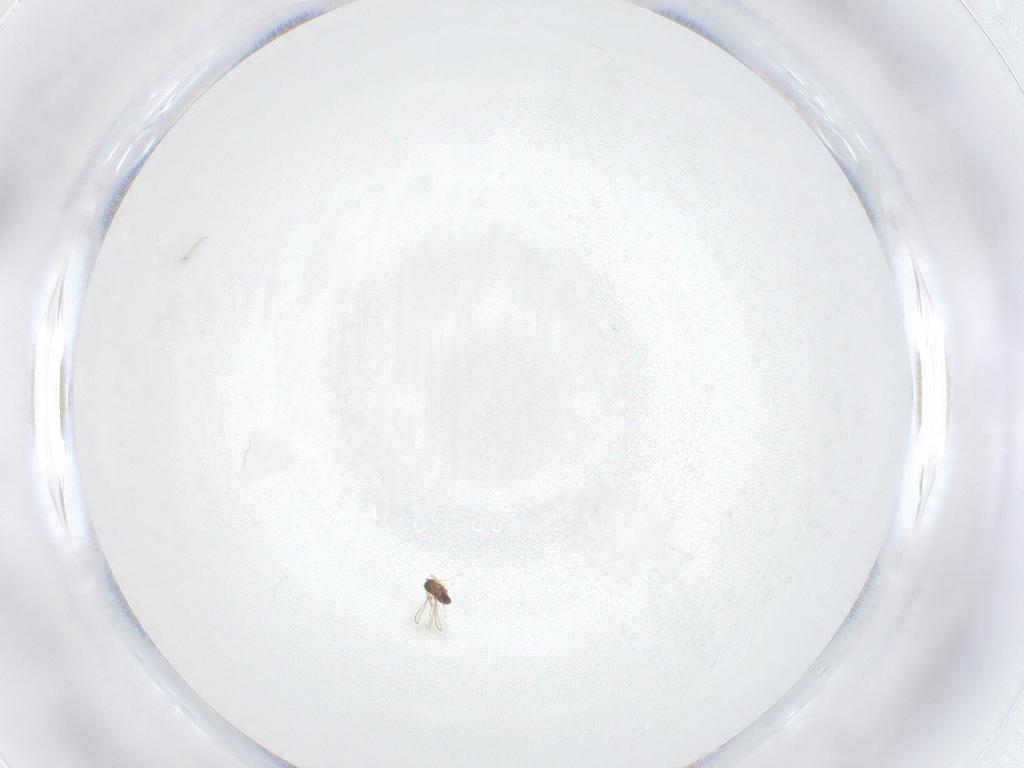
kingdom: Animalia
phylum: Arthropoda
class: Insecta
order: Hymenoptera
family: Mymaridae
